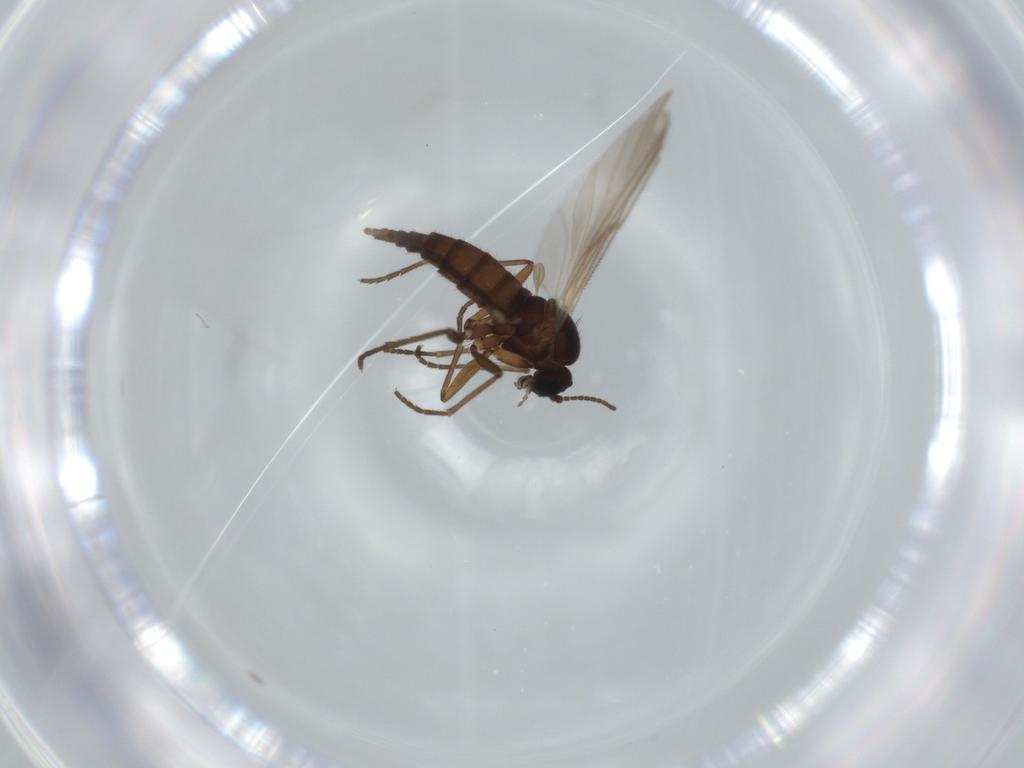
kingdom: Animalia
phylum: Arthropoda
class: Insecta
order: Diptera
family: Sciaridae
